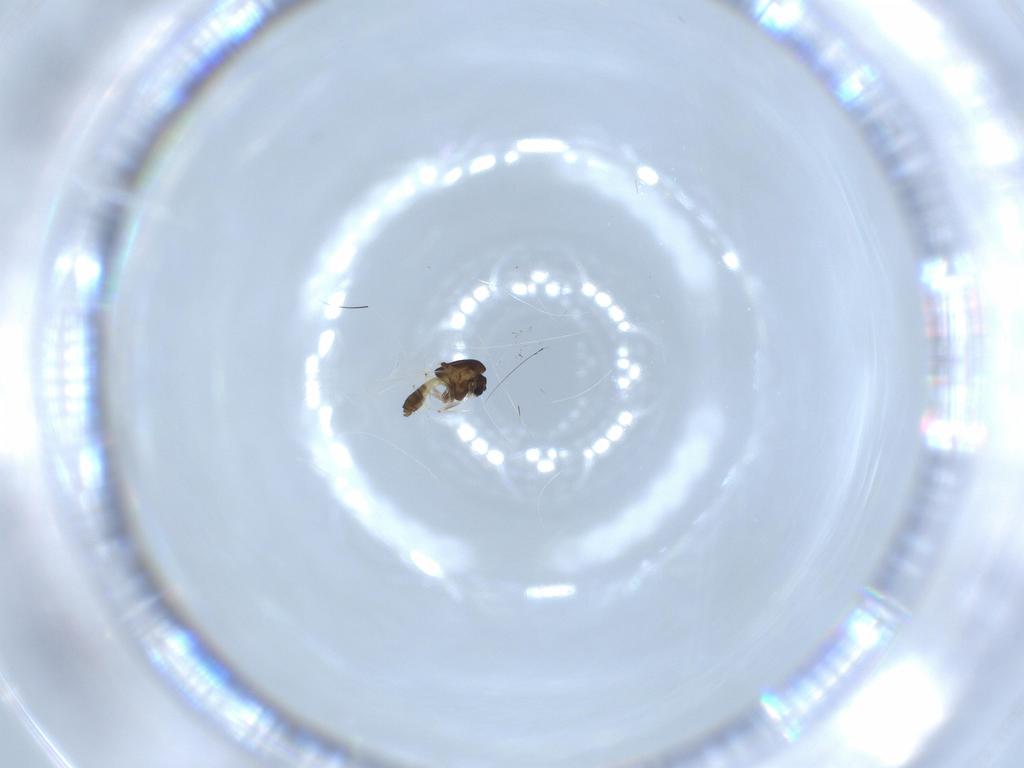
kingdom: Animalia
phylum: Arthropoda
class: Insecta
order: Diptera
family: Chironomidae
